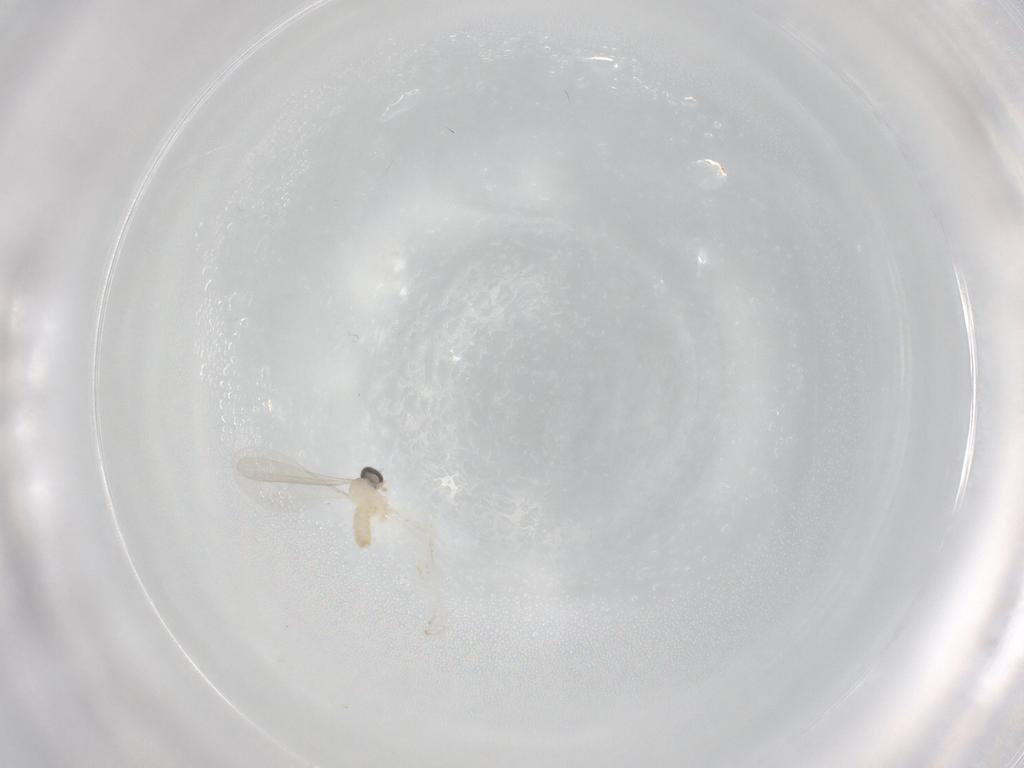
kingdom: Animalia
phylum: Arthropoda
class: Insecta
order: Diptera
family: Cecidomyiidae
